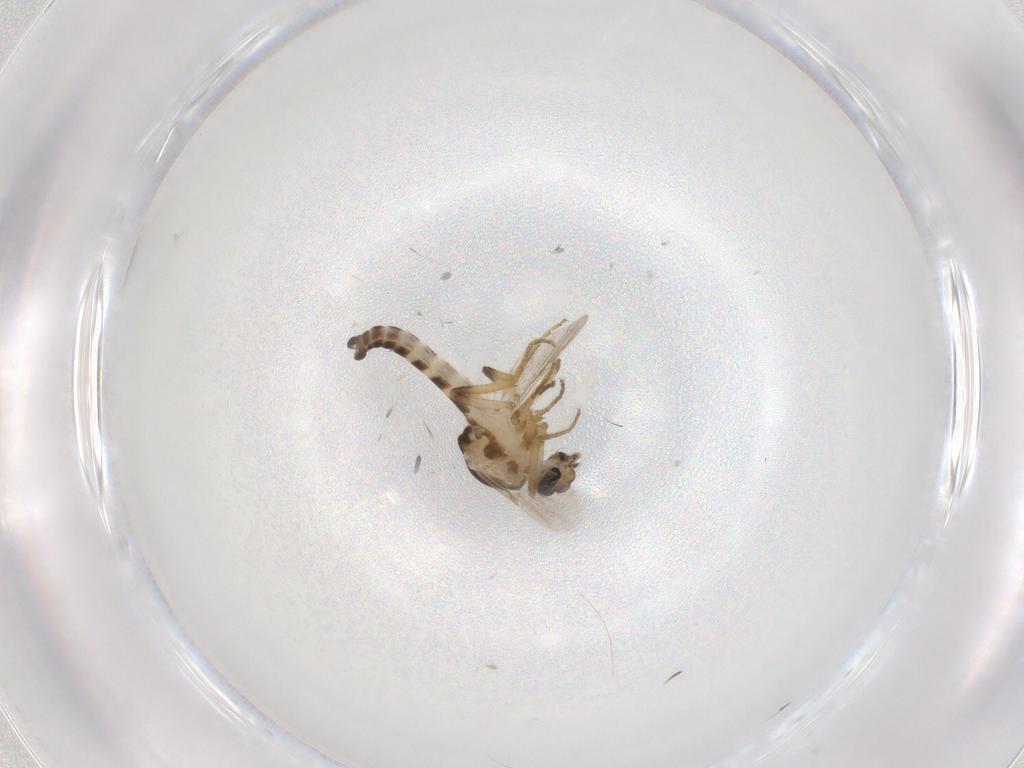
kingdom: Animalia
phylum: Arthropoda
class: Insecta
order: Diptera
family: Ceratopogonidae
